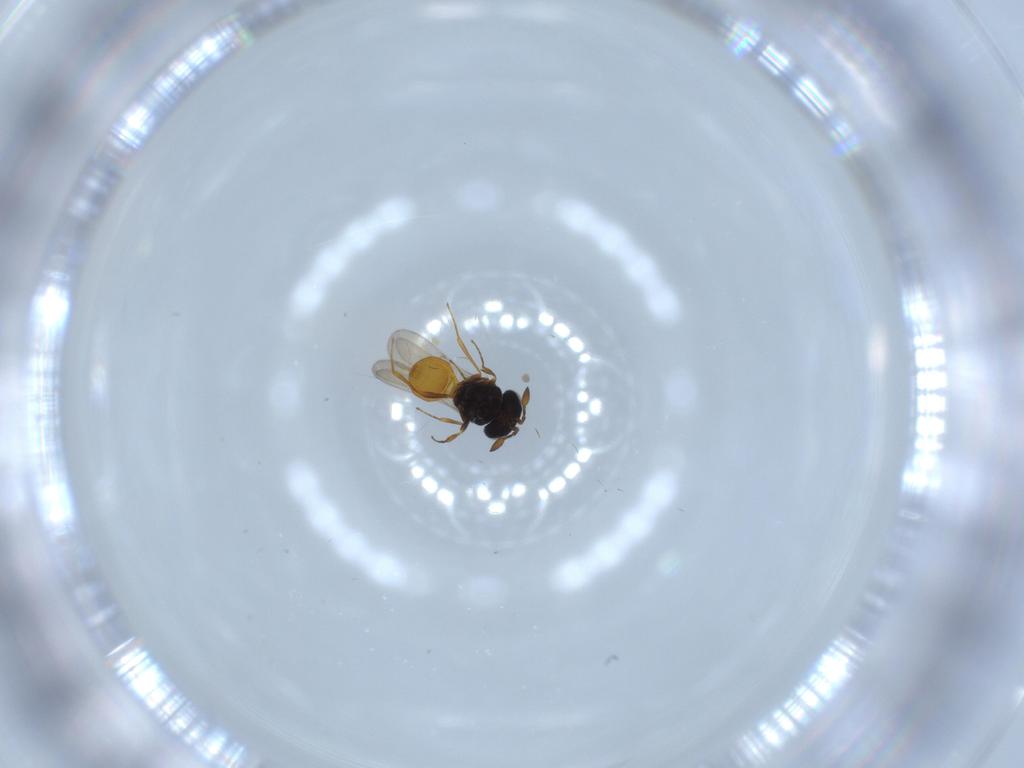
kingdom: Animalia
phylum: Arthropoda
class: Insecta
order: Hymenoptera
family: Scelionidae
